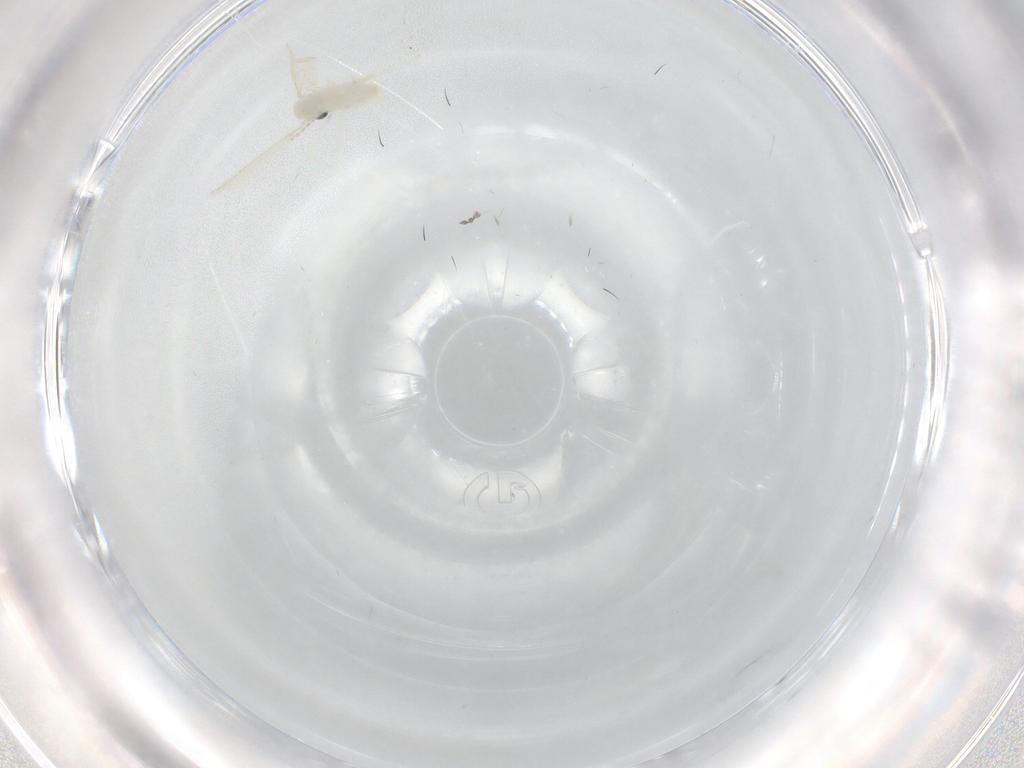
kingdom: Animalia
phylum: Arthropoda
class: Insecta
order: Diptera
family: Cecidomyiidae
